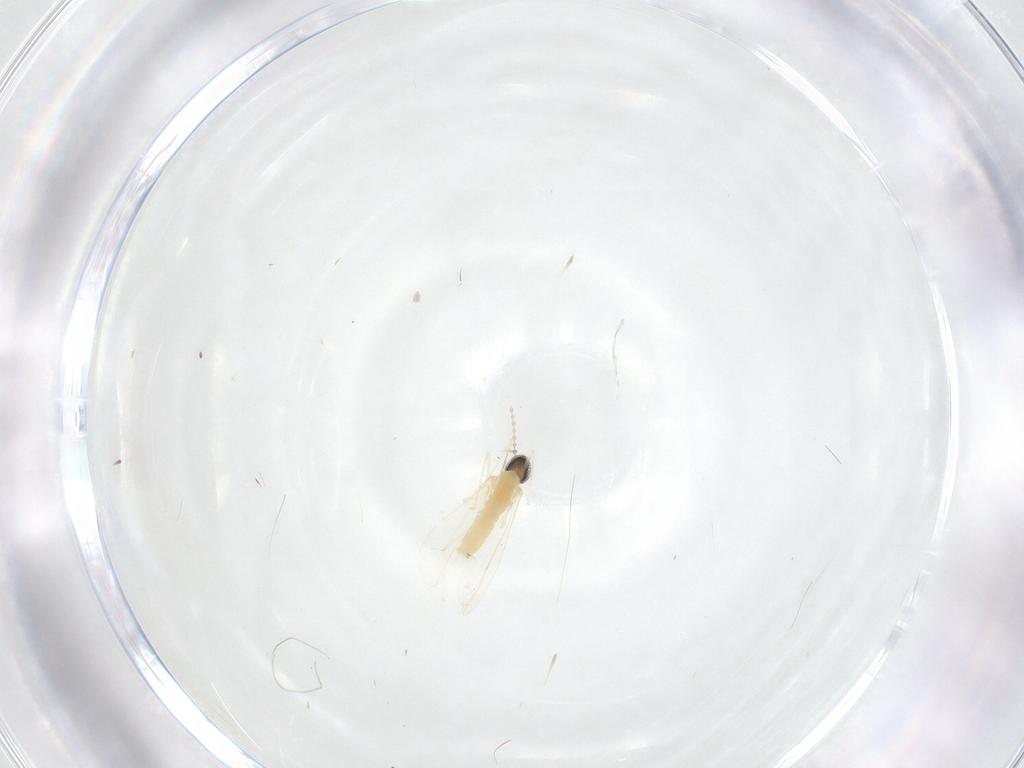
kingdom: Animalia
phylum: Arthropoda
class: Insecta
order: Diptera
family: Cecidomyiidae
